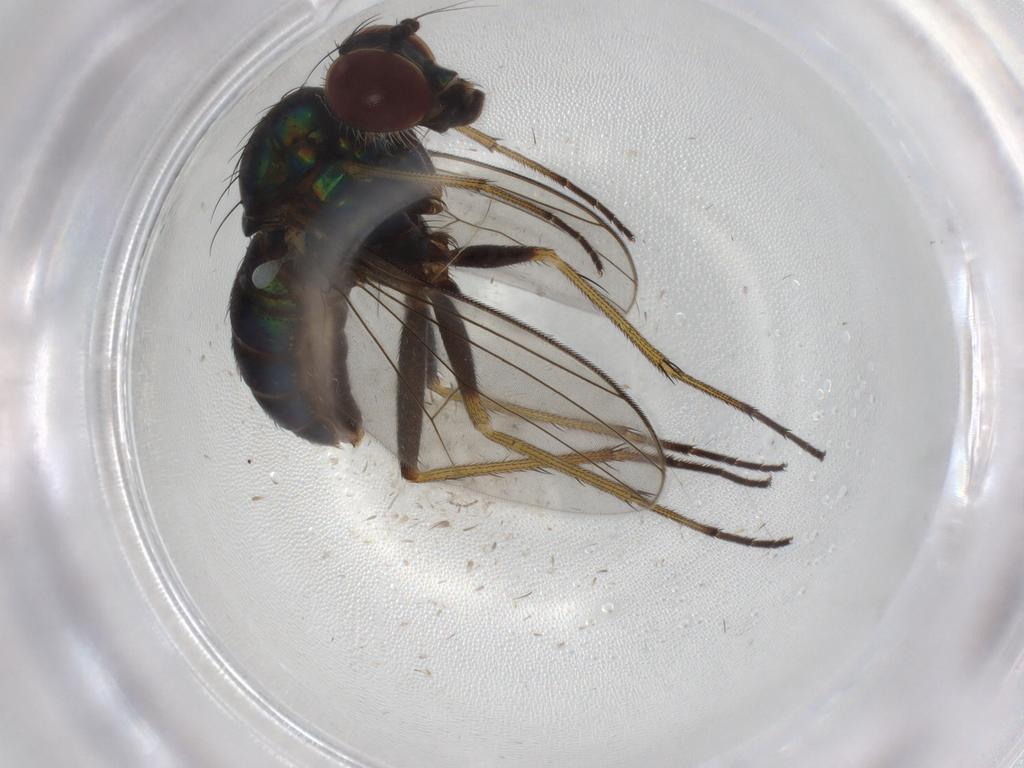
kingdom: Animalia
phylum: Arthropoda
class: Insecta
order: Diptera
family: Dolichopodidae
